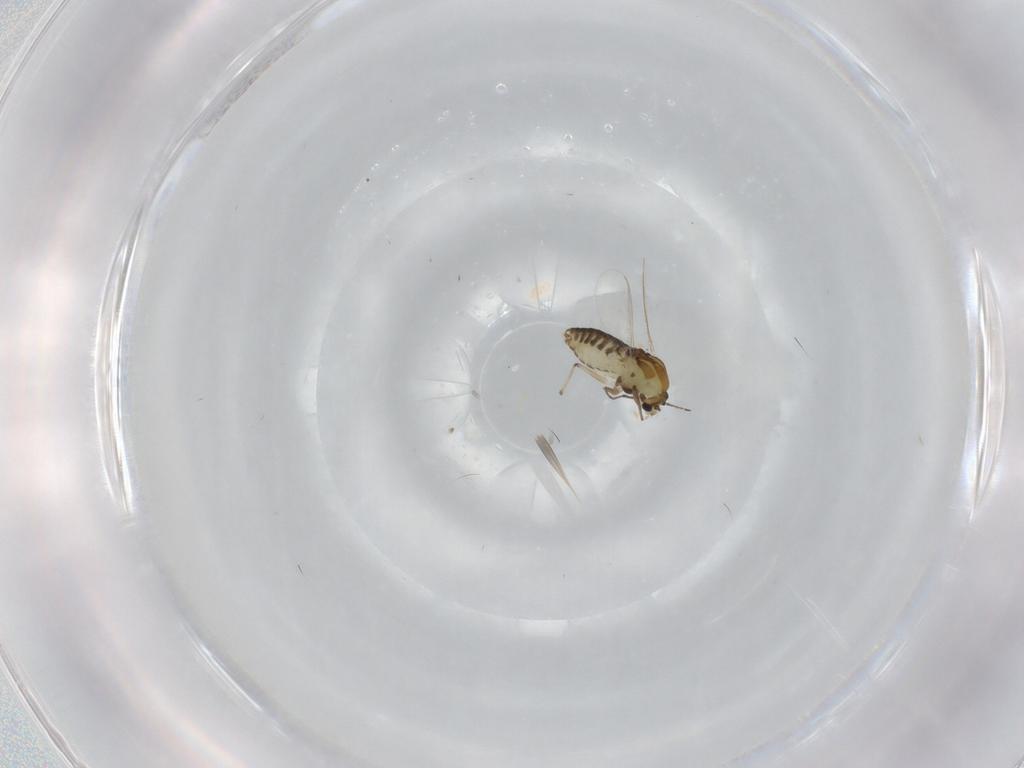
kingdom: Animalia
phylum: Arthropoda
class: Insecta
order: Diptera
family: Chironomidae
